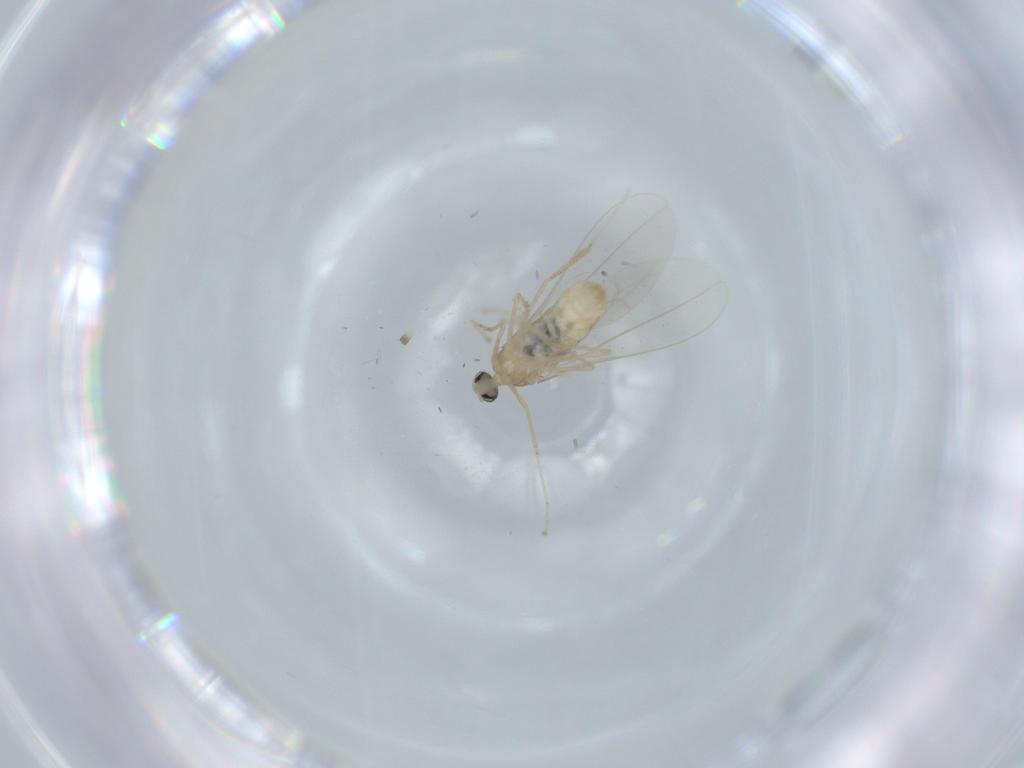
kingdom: Animalia
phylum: Arthropoda
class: Insecta
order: Diptera
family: Cecidomyiidae
